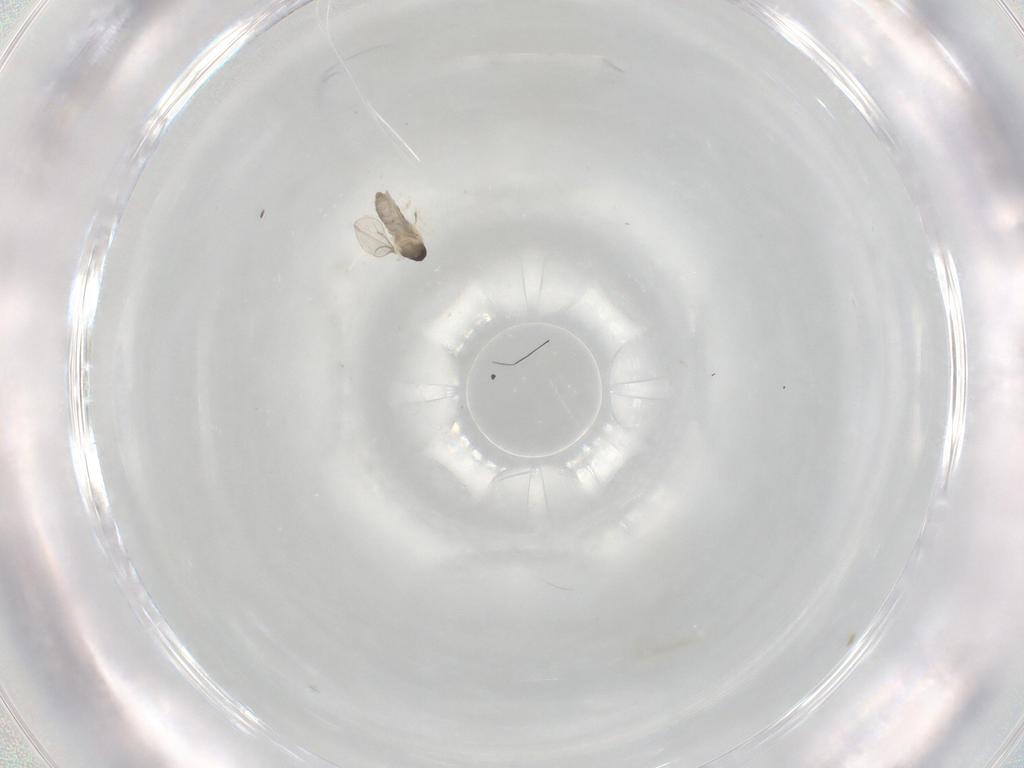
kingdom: Animalia
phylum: Arthropoda
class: Insecta
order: Diptera
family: Cecidomyiidae
